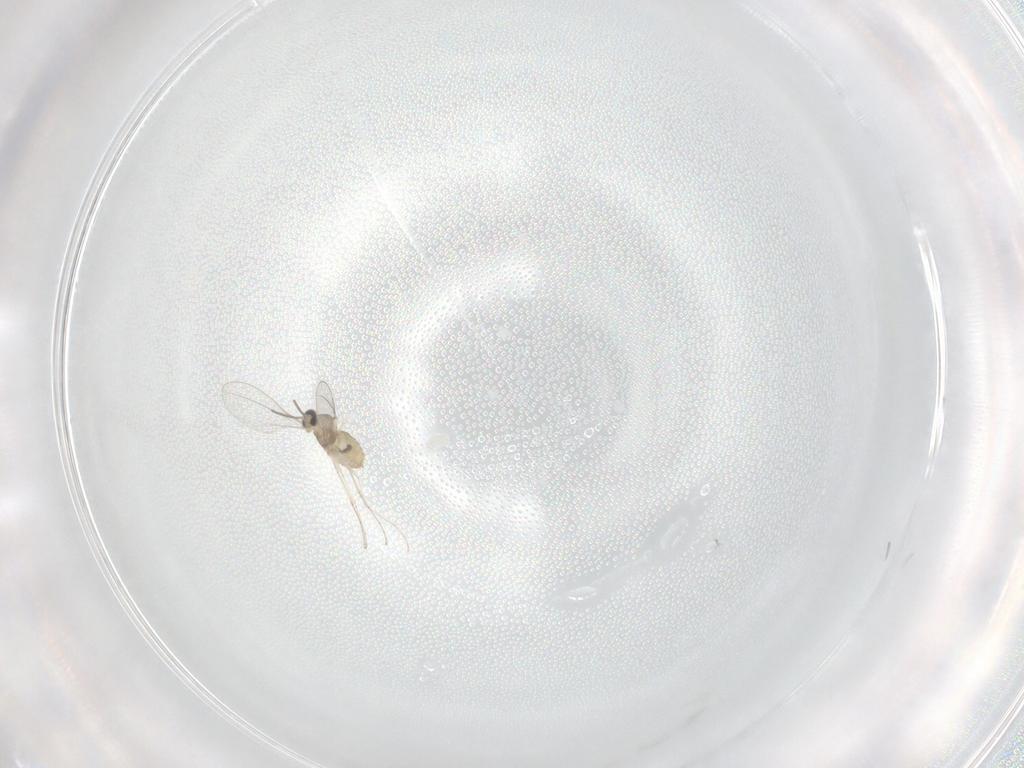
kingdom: Animalia
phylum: Arthropoda
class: Insecta
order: Diptera
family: Cecidomyiidae
